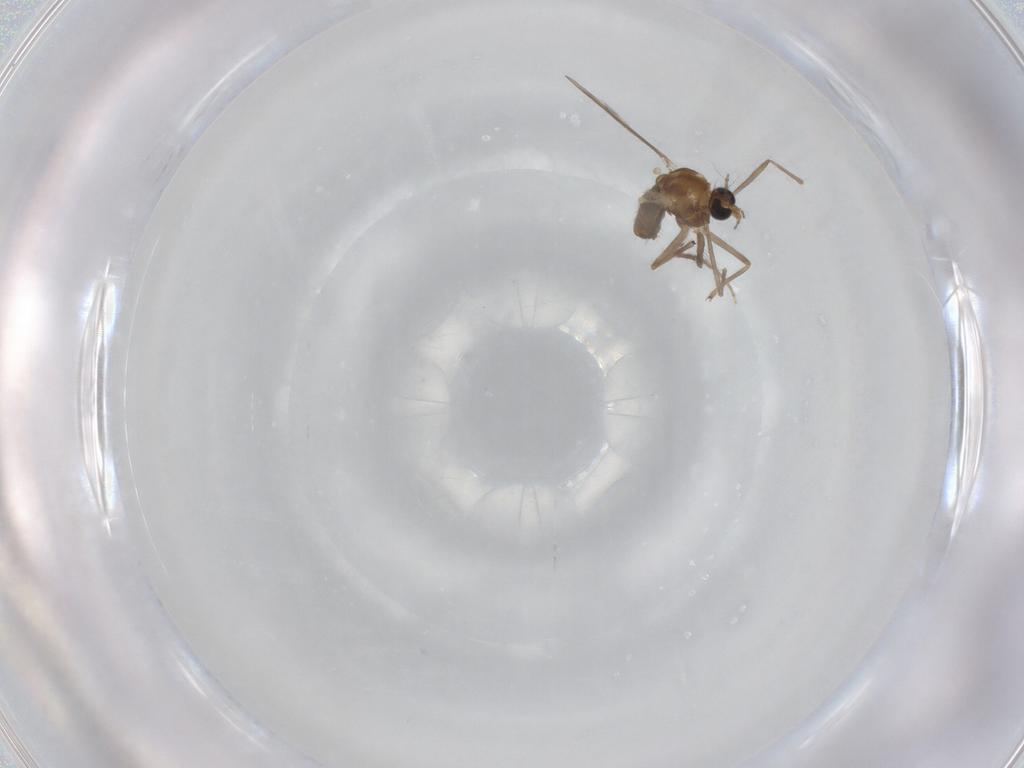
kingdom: Animalia
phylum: Arthropoda
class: Insecta
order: Diptera
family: Chironomidae
